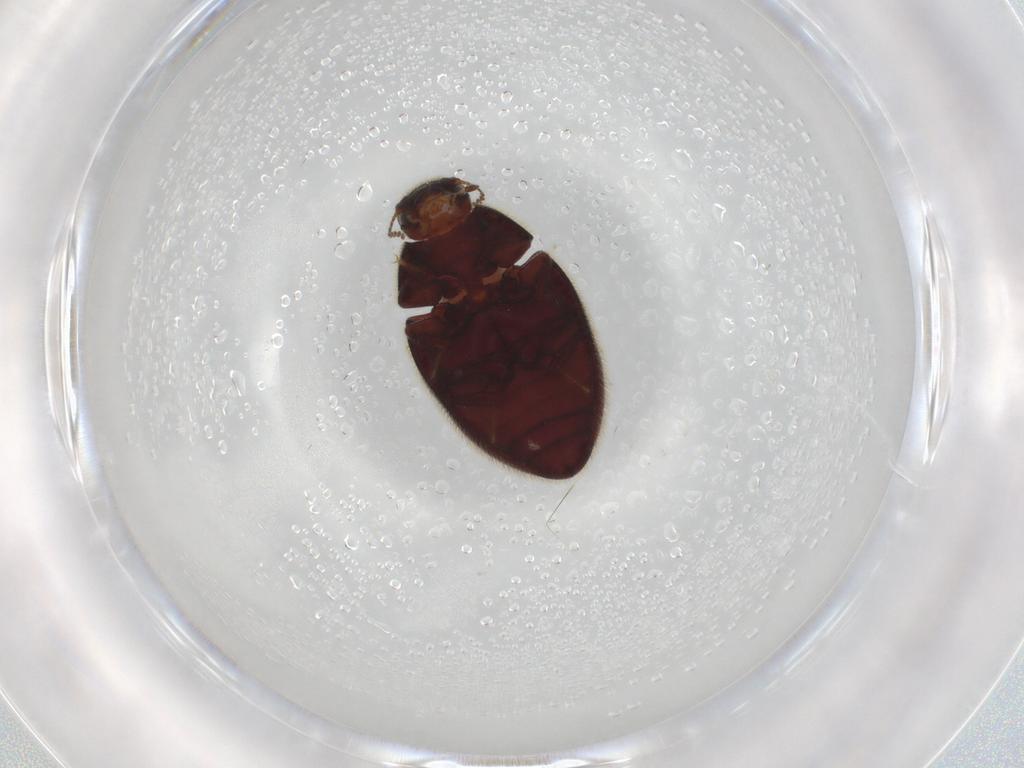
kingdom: Animalia
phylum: Arthropoda
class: Insecta
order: Coleoptera
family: Limnichidae
